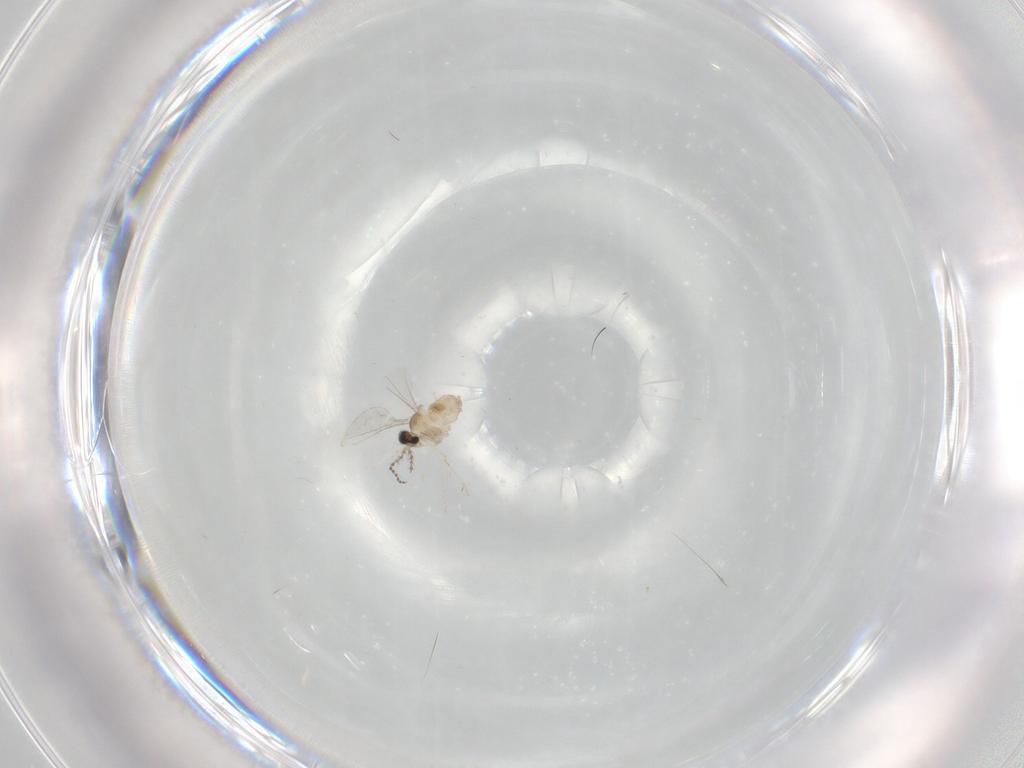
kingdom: Animalia
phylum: Arthropoda
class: Insecta
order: Diptera
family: Cecidomyiidae
